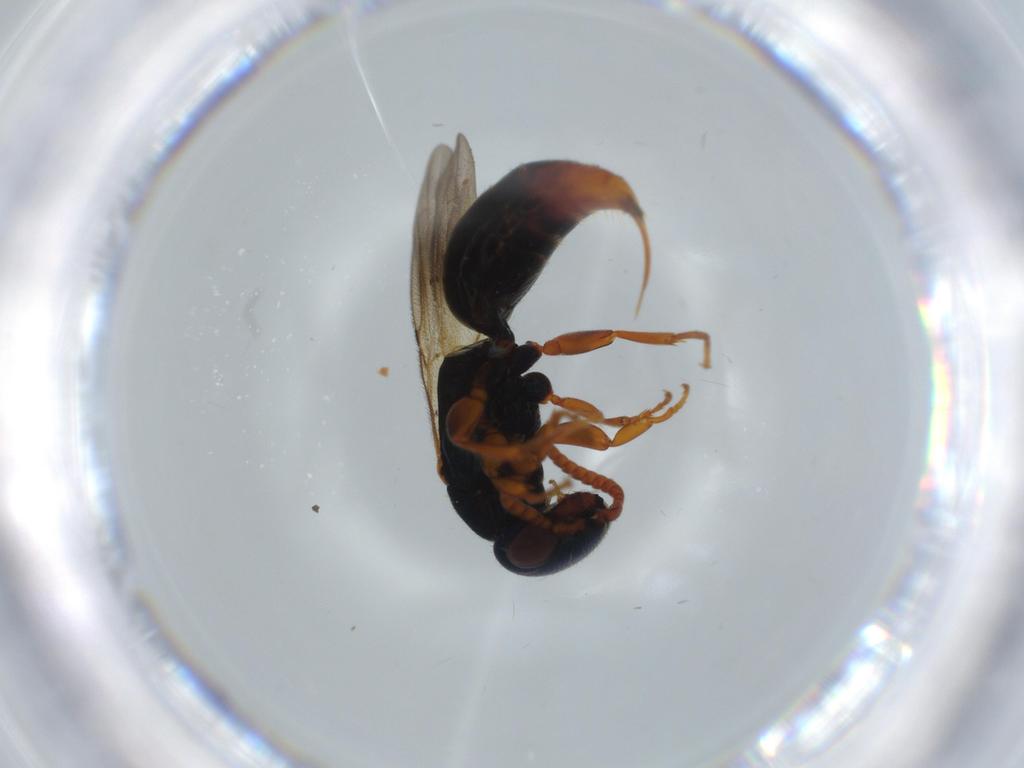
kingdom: Animalia
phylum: Arthropoda
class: Insecta
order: Hymenoptera
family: Bethylidae
